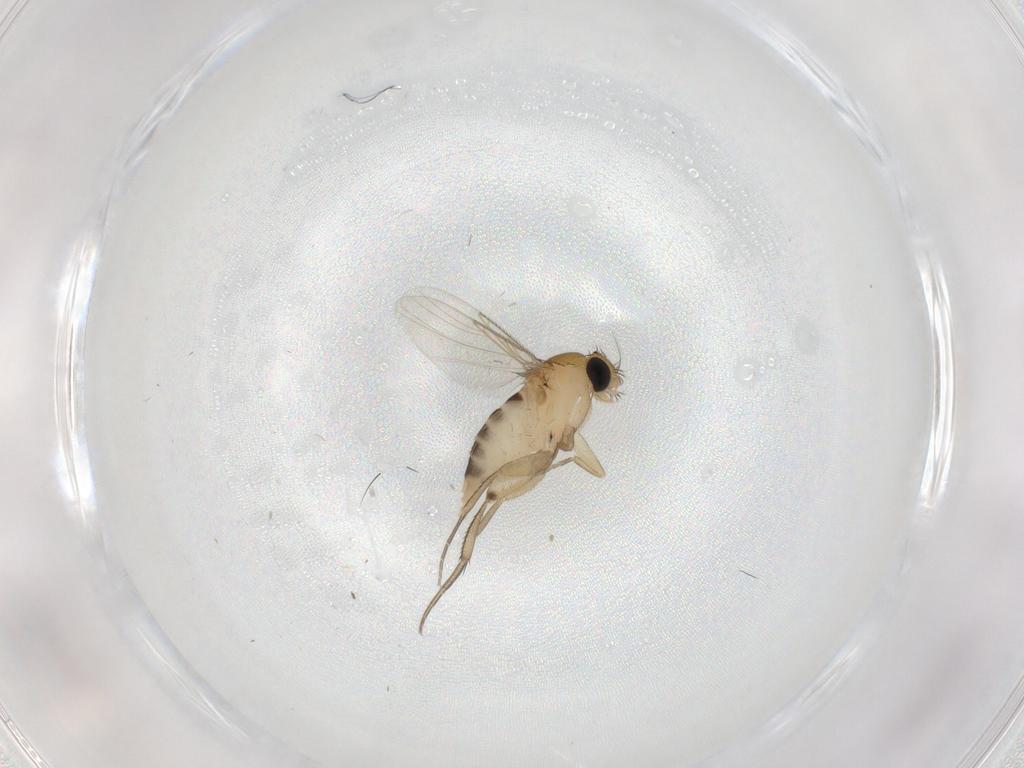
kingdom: Animalia
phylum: Arthropoda
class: Insecta
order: Diptera
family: Phoridae
